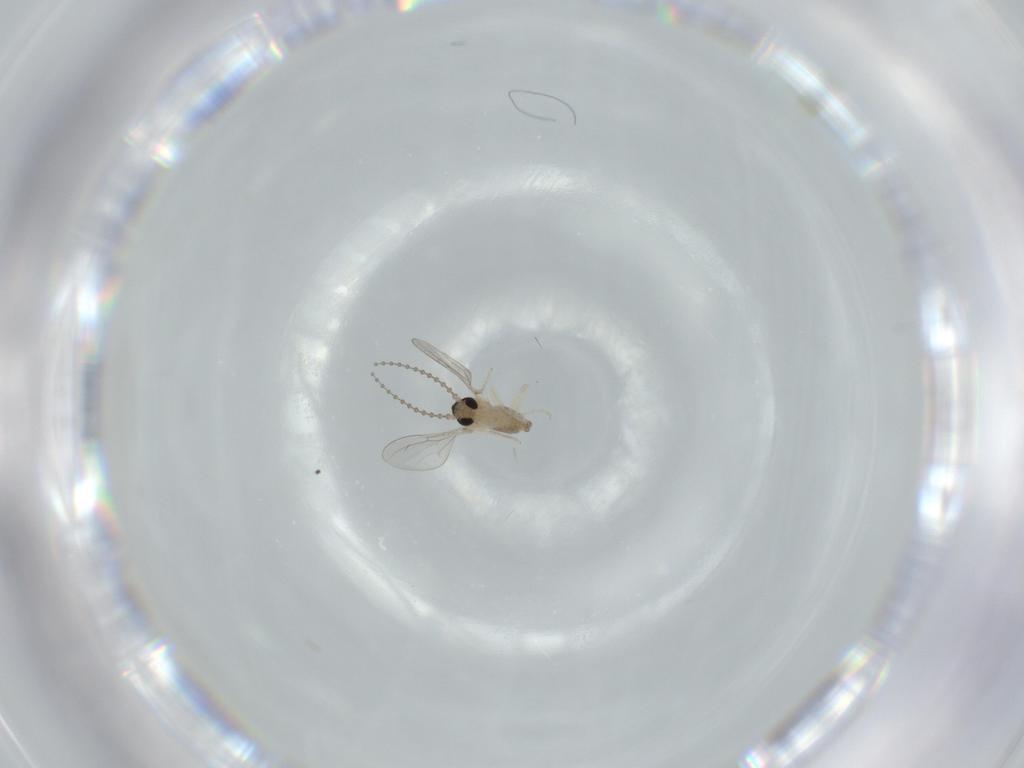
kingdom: Animalia
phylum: Arthropoda
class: Insecta
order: Diptera
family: Cecidomyiidae
